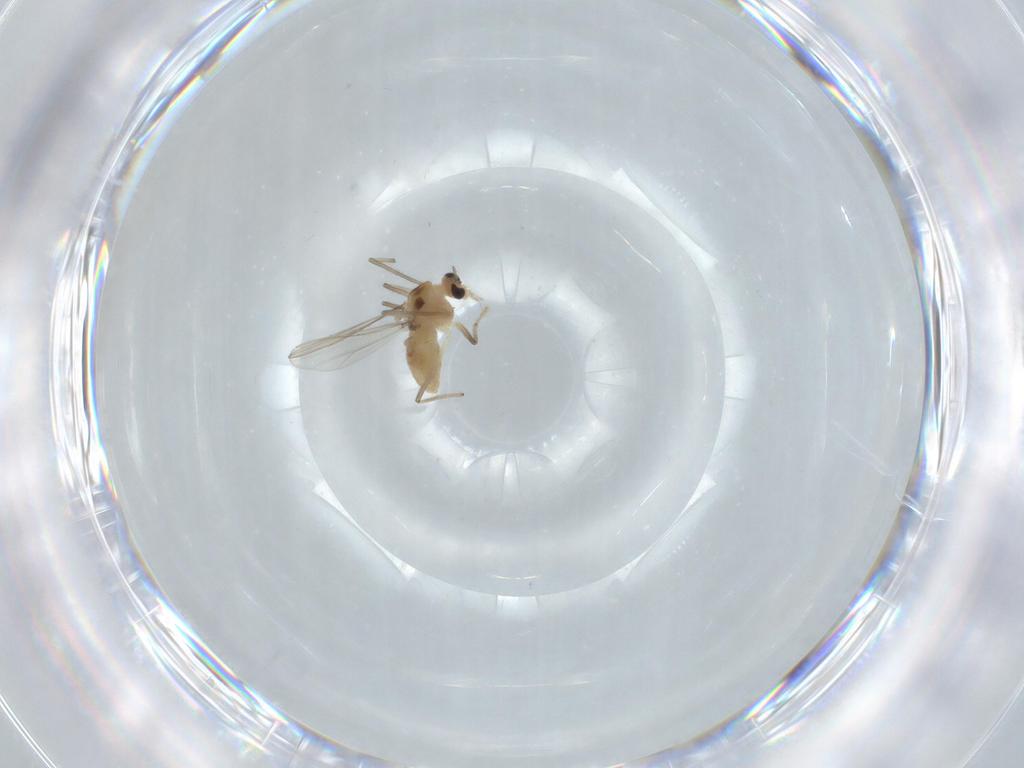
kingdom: Animalia
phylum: Arthropoda
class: Insecta
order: Diptera
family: Chironomidae
